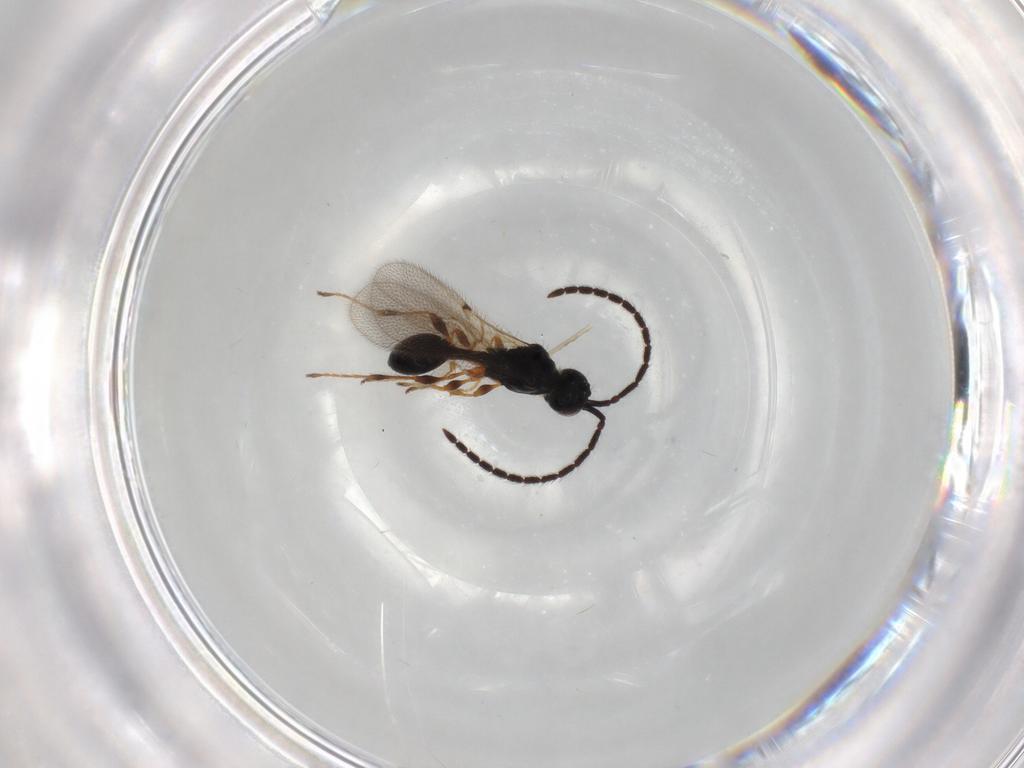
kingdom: Animalia
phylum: Arthropoda
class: Insecta
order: Hymenoptera
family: Diapriidae
